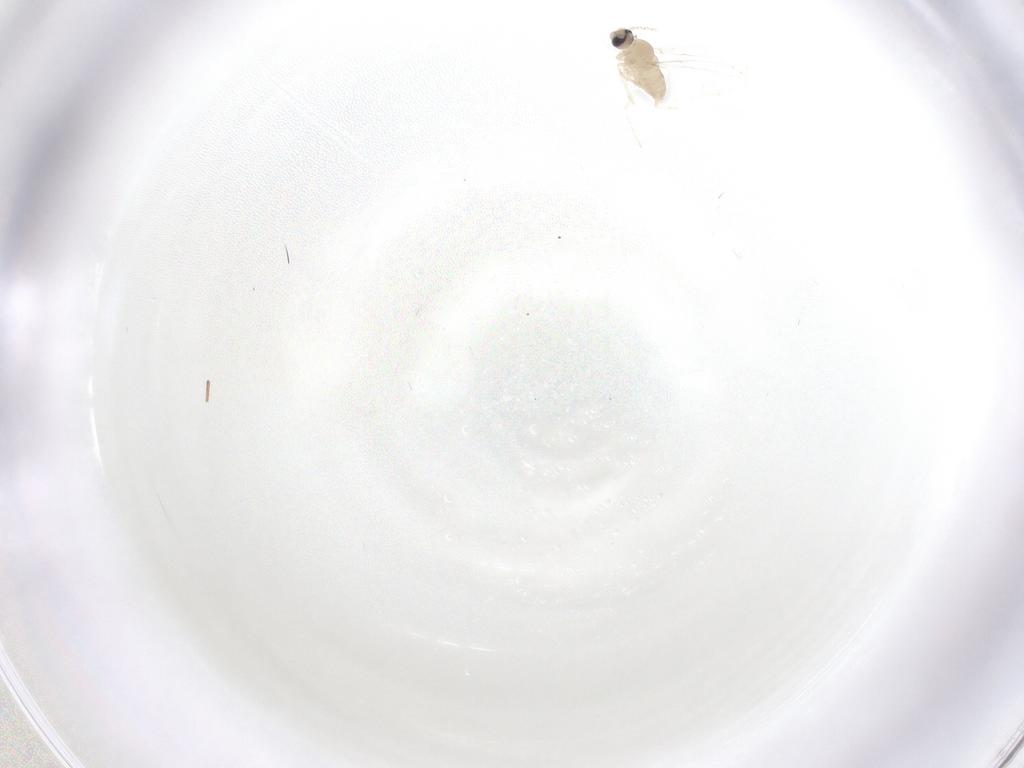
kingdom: Animalia
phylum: Arthropoda
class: Insecta
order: Diptera
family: Cecidomyiidae
